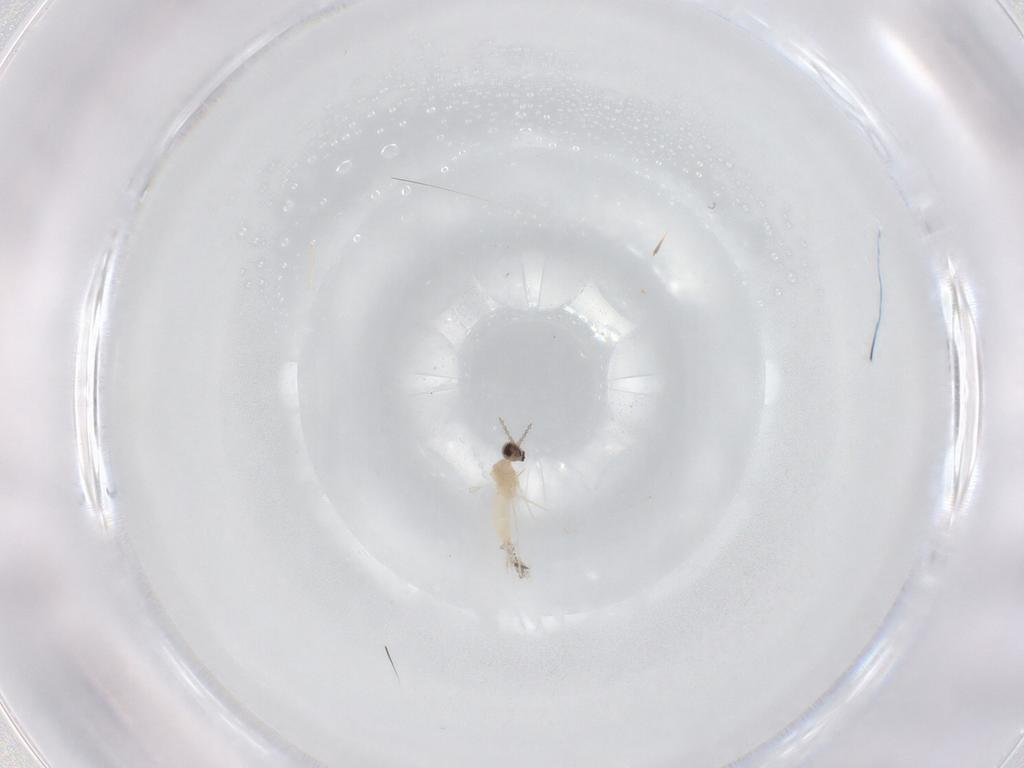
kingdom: Animalia
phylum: Arthropoda
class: Insecta
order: Diptera
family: Cecidomyiidae
